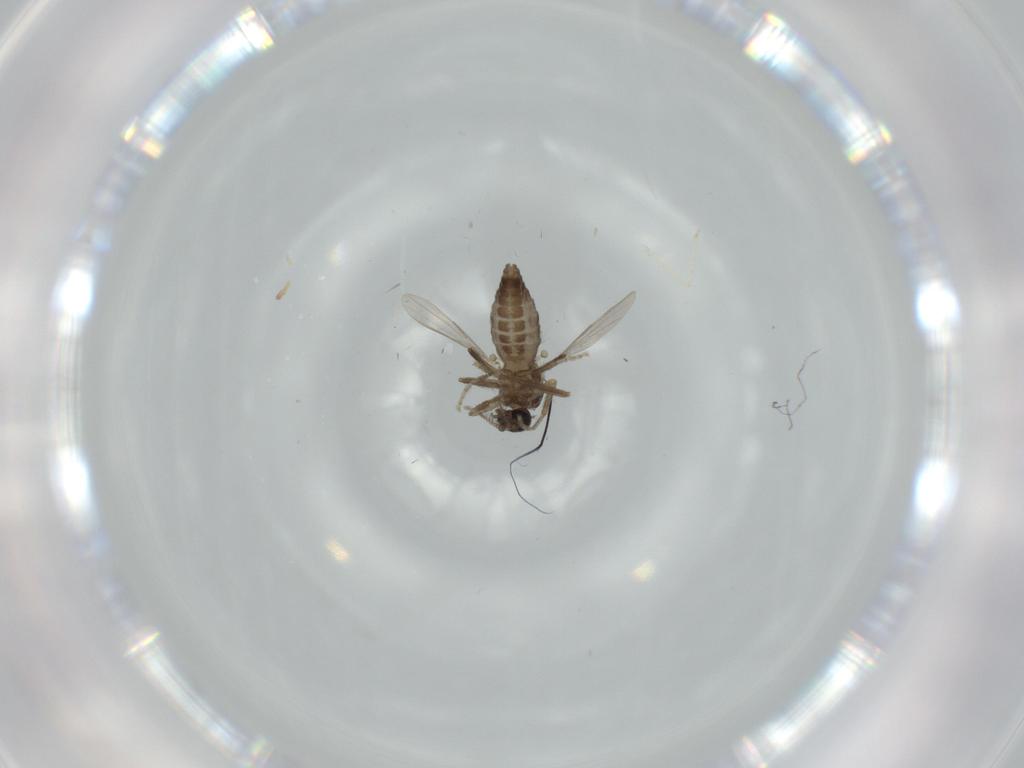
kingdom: Animalia
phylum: Arthropoda
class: Insecta
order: Diptera
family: Ceratopogonidae
